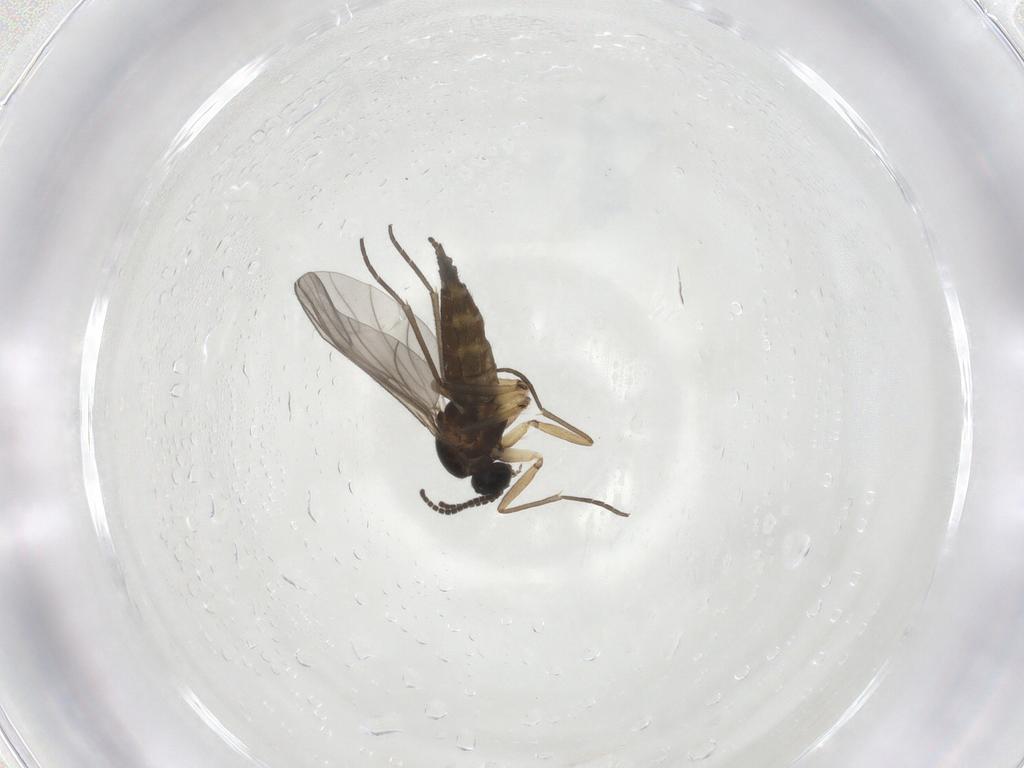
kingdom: Animalia
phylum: Arthropoda
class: Insecta
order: Diptera
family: Sciaridae
